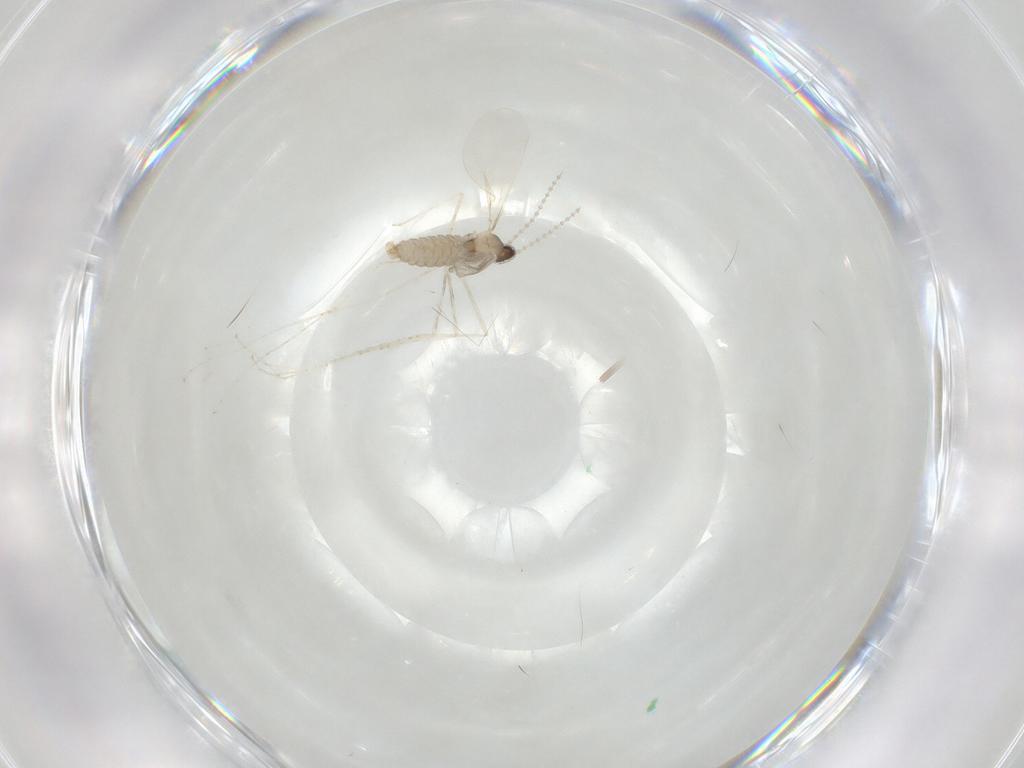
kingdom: Animalia
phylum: Arthropoda
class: Insecta
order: Diptera
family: Cecidomyiidae
